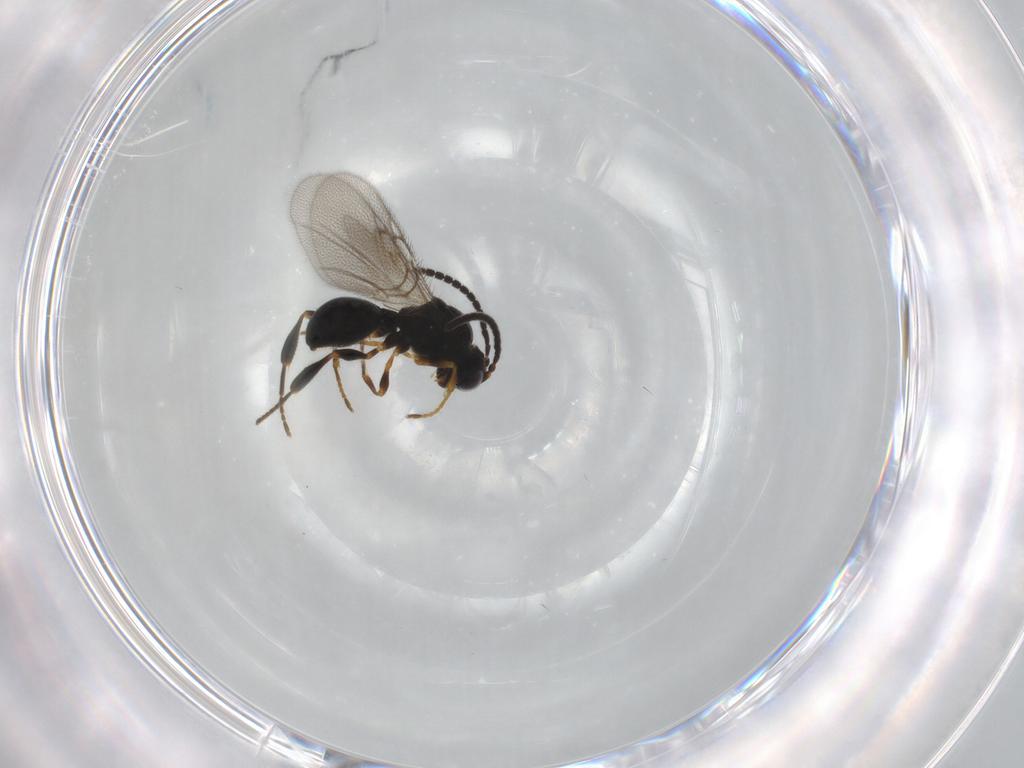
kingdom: Animalia
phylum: Arthropoda
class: Insecta
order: Hymenoptera
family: Diapriidae
